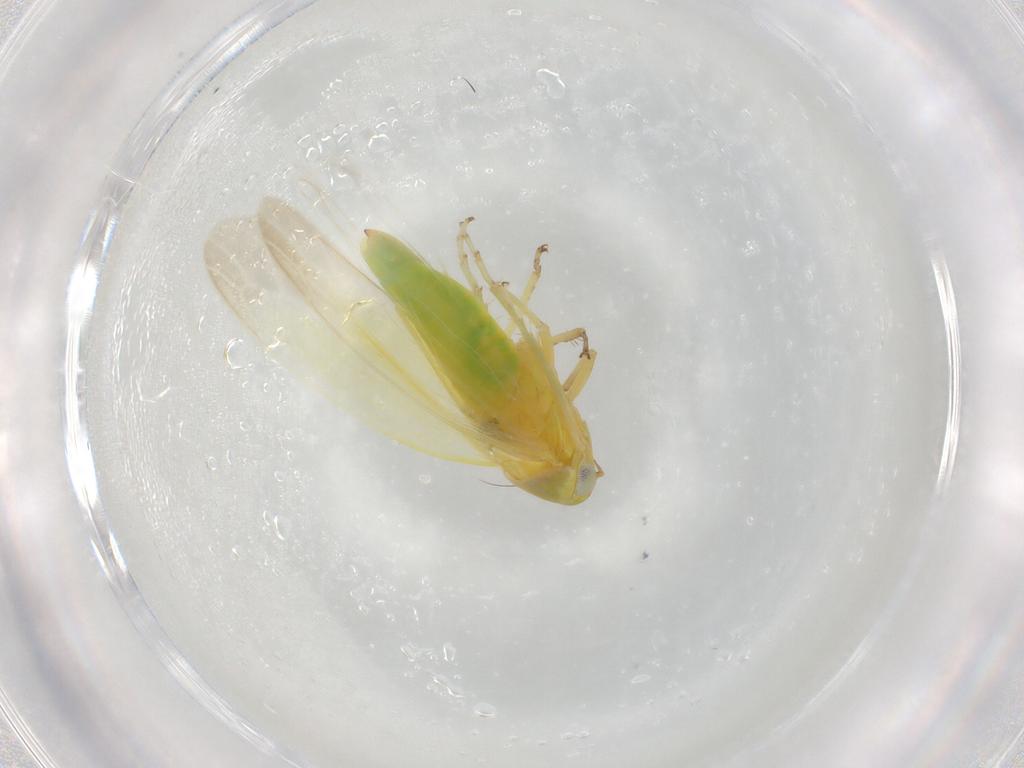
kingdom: Animalia
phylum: Arthropoda
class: Insecta
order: Hemiptera
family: Cicadellidae
